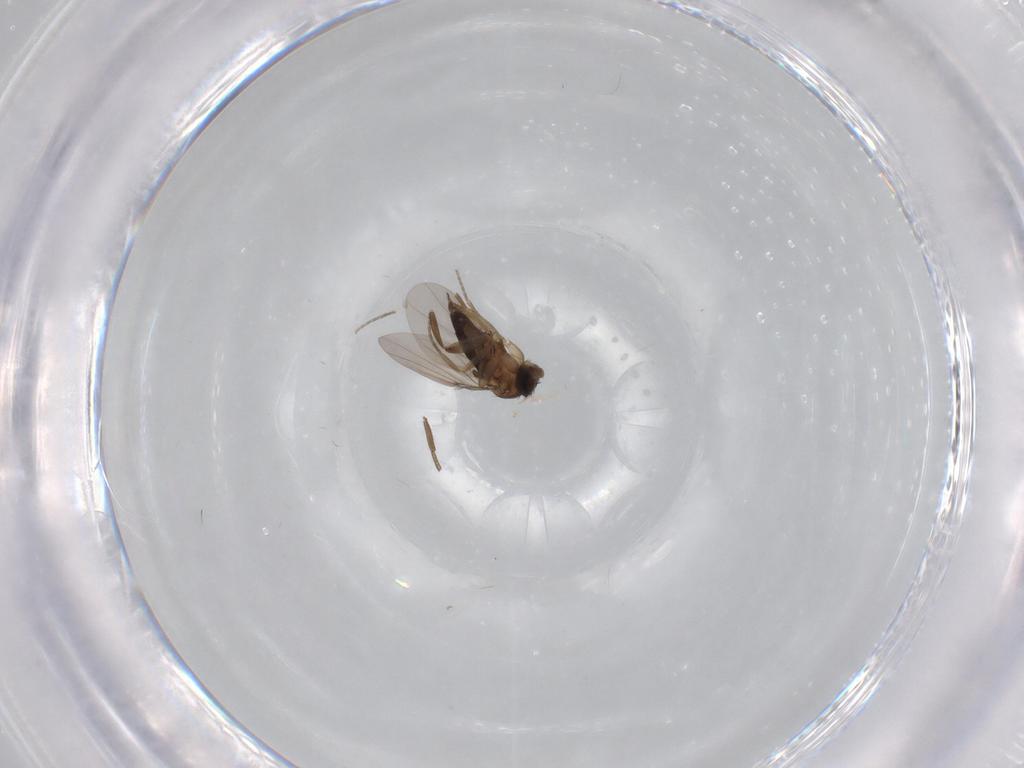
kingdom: Animalia
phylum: Arthropoda
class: Insecta
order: Diptera
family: Phoridae
